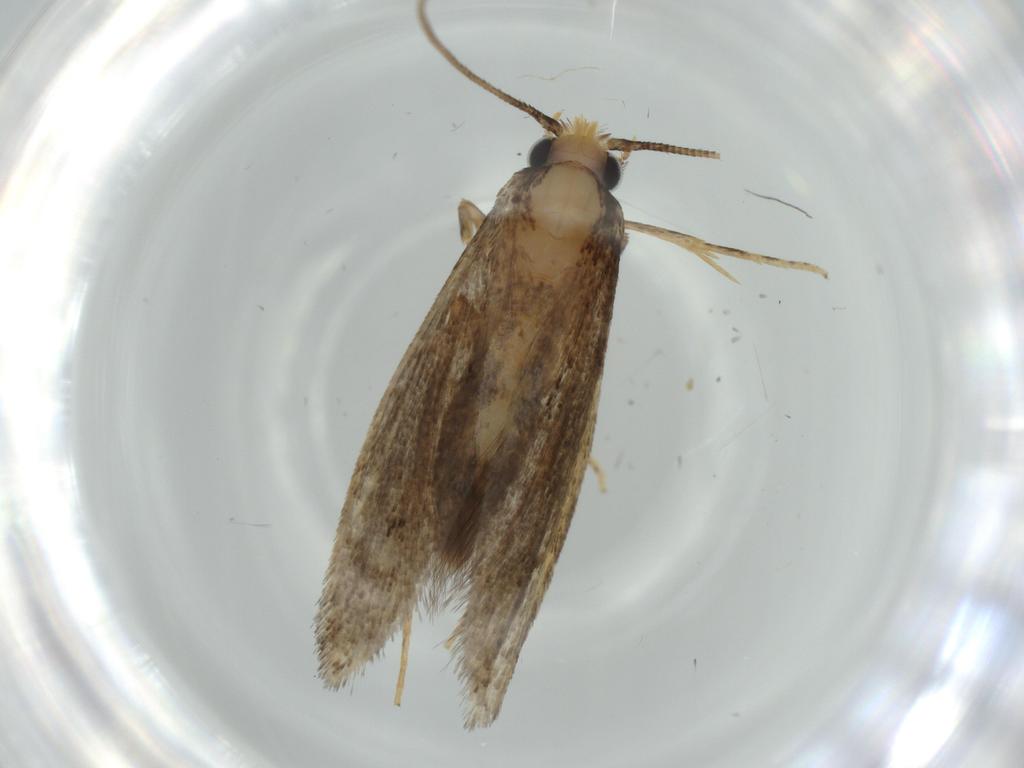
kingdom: Animalia
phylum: Arthropoda
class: Insecta
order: Lepidoptera
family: Tineidae
